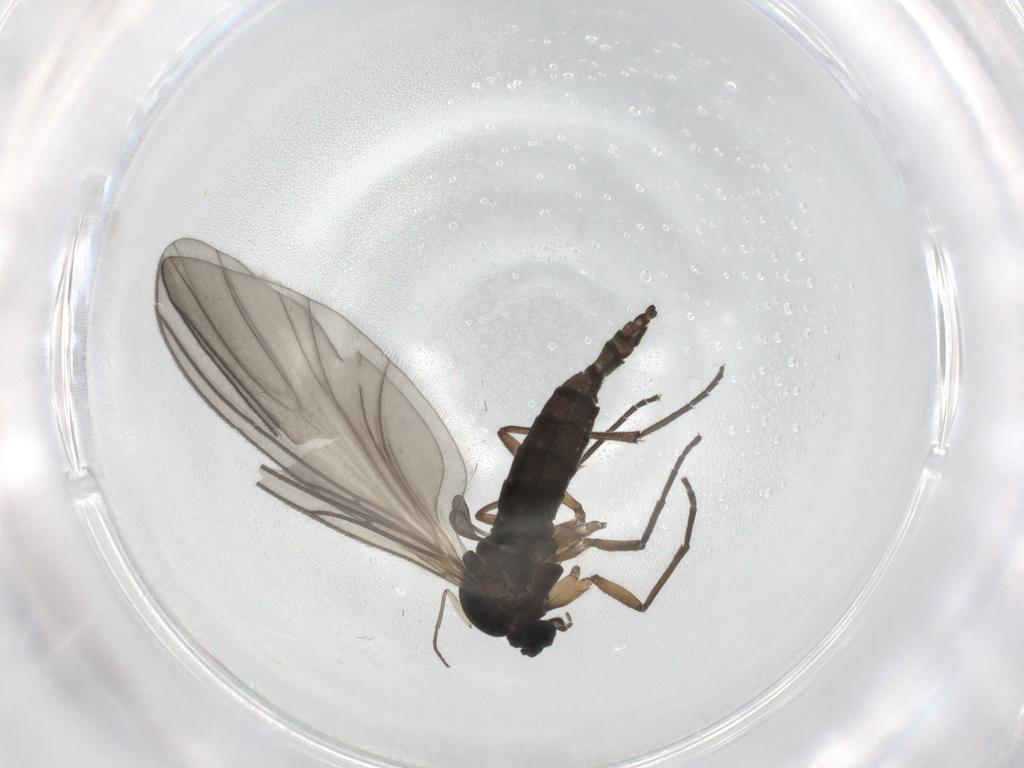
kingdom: Animalia
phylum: Arthropoda
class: Insecta
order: Diptera
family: Sciaridae
